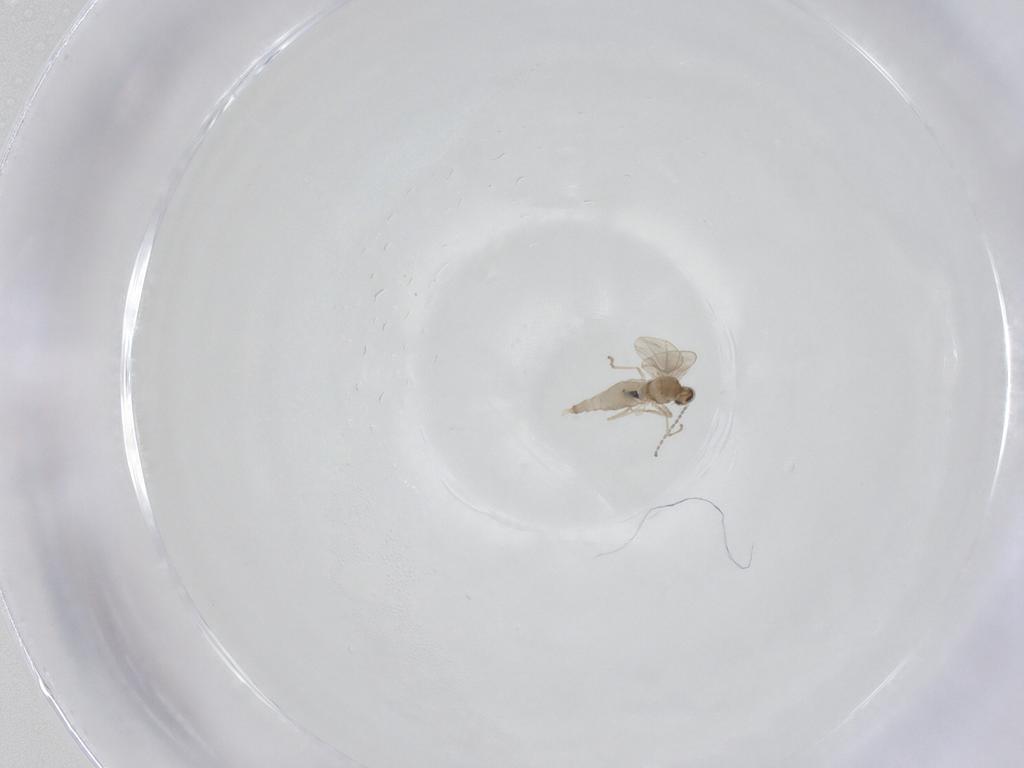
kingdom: Animalia
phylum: Arthropoda
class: Insecta
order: Diptera
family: Cecidomyiidae
